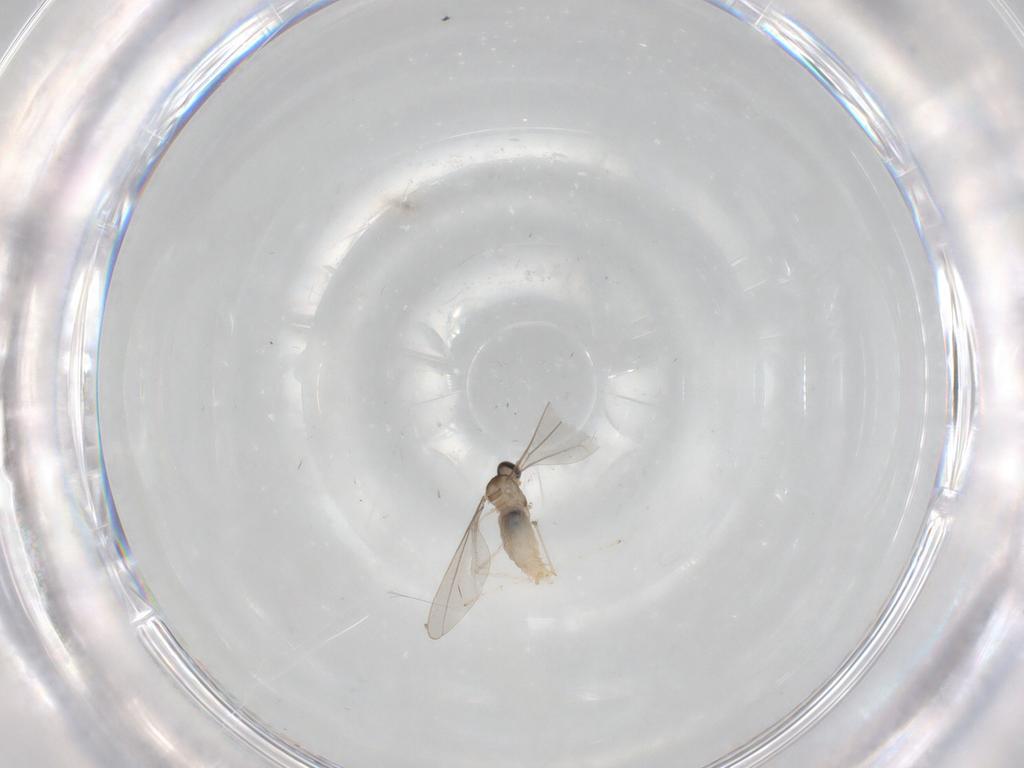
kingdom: Animalia
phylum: Arthropoda
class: Insecta
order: Diptera
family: Cecidomyiidae
